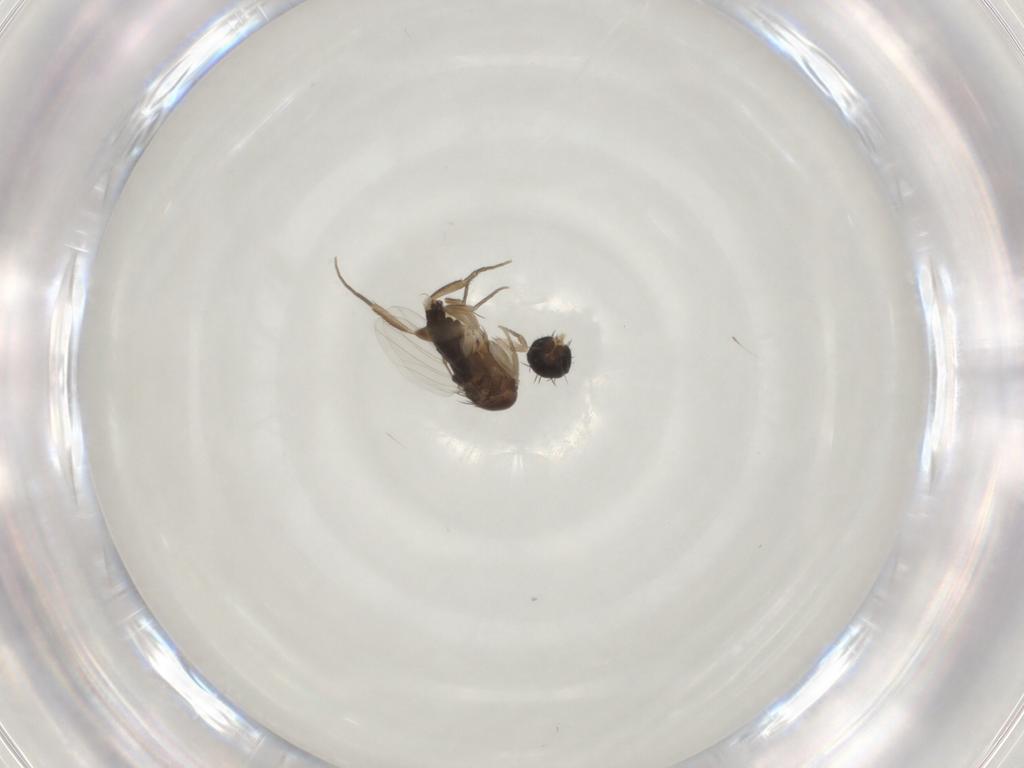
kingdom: Animalia
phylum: Arthropoda
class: Insecta
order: Diptera
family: Phoridae
